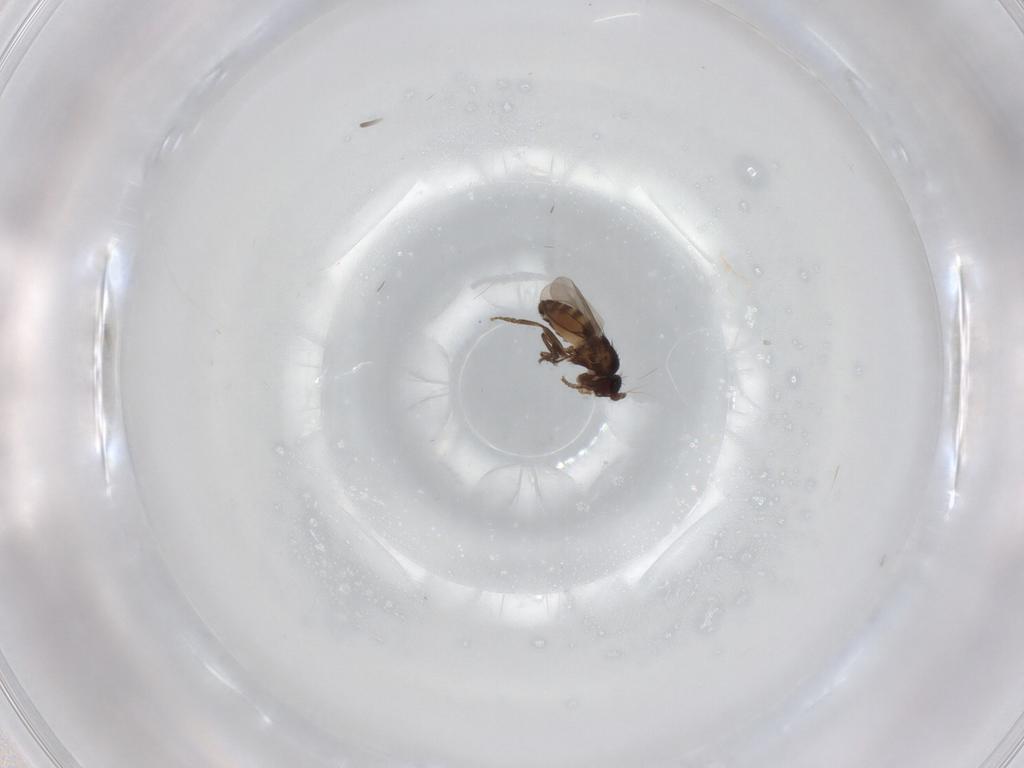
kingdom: Animalia
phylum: Arthropoda
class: Insecta
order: Diptera
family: Sphaeroceridae
